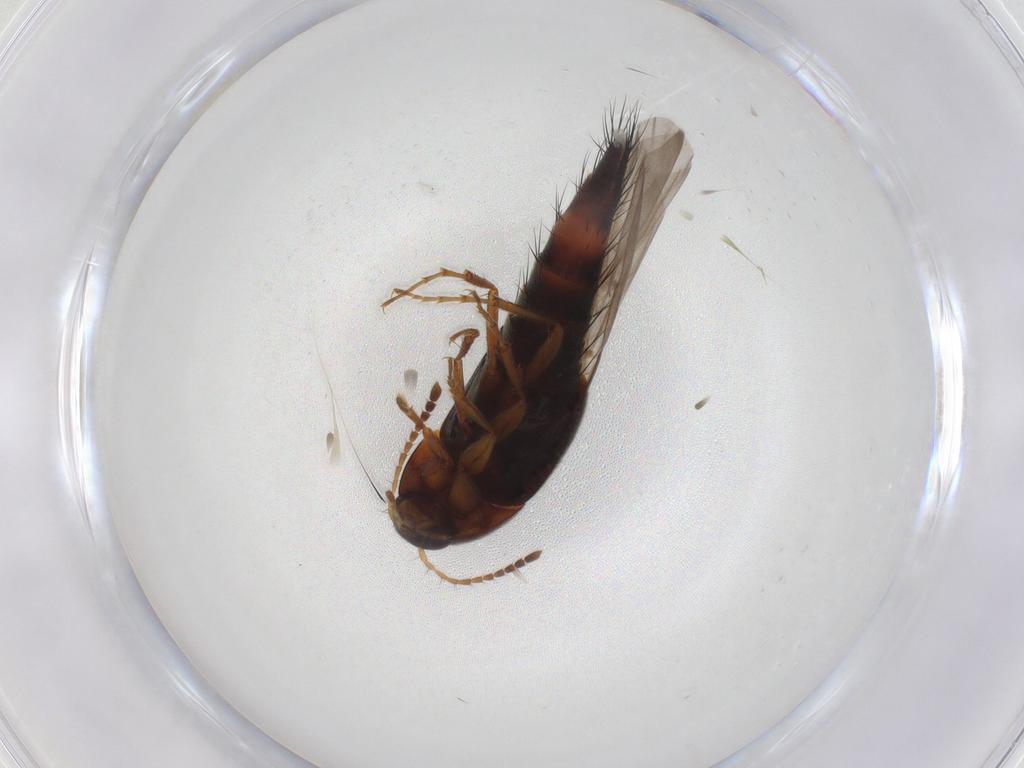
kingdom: Animalia
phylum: Arthropoda
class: Insecta
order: Coleoptera
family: Staphylinidae
